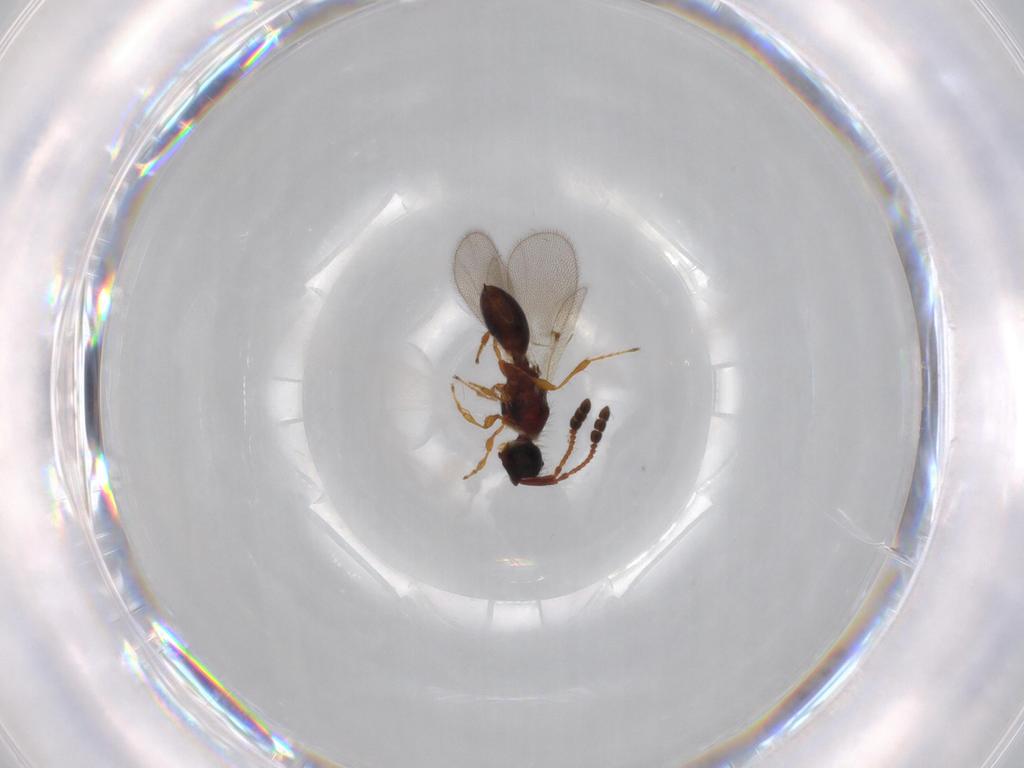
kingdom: Animalia
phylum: Arthropoda
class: Insecta
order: Hymenoptera
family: Diapriidae
